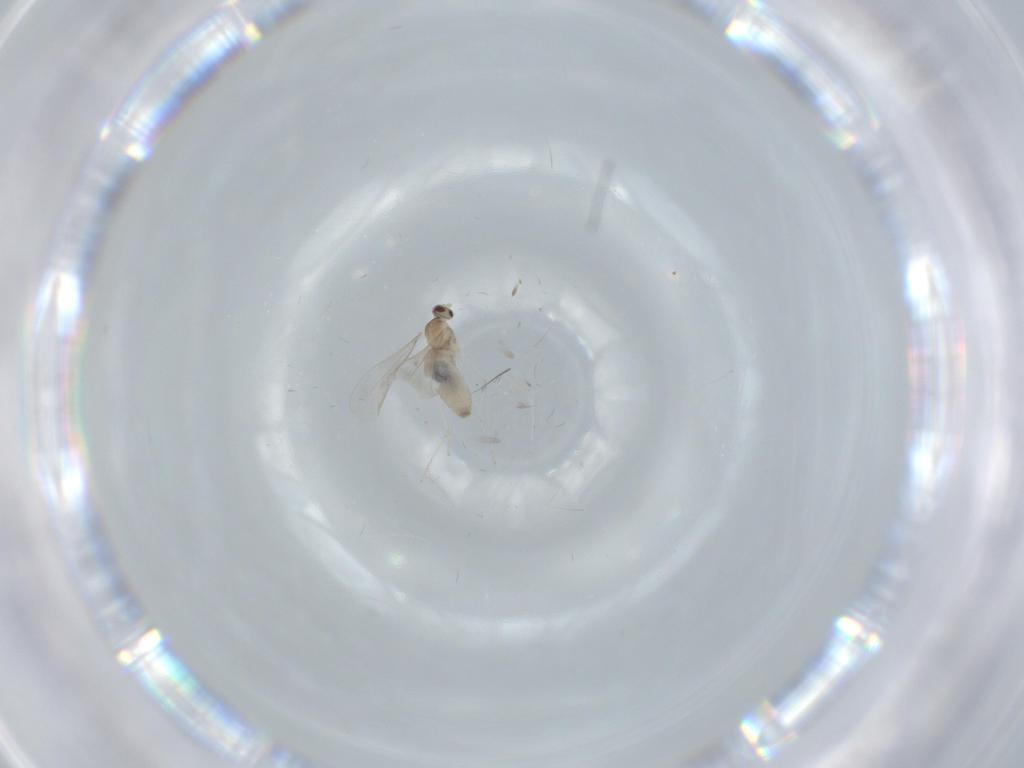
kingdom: Animalia
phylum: Arthropoda
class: Insecta
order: Diptera
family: Cecidomyiidae
